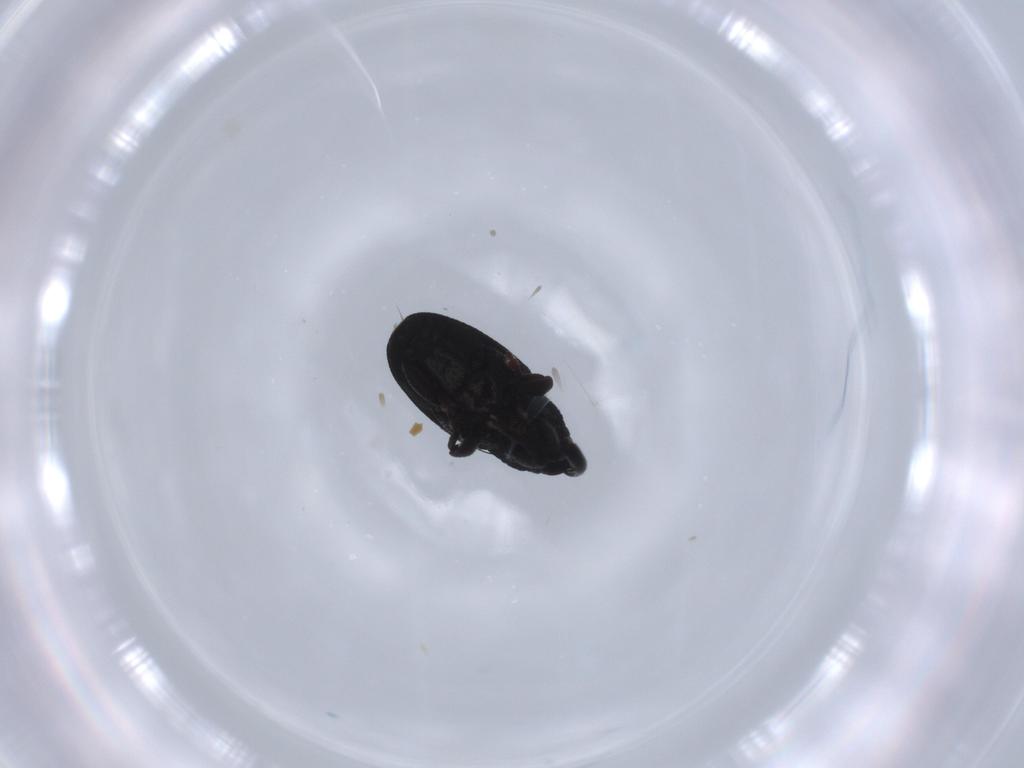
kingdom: Animalia
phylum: Arthropoda
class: Insecta
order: Coleoptera
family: Curculionidae
